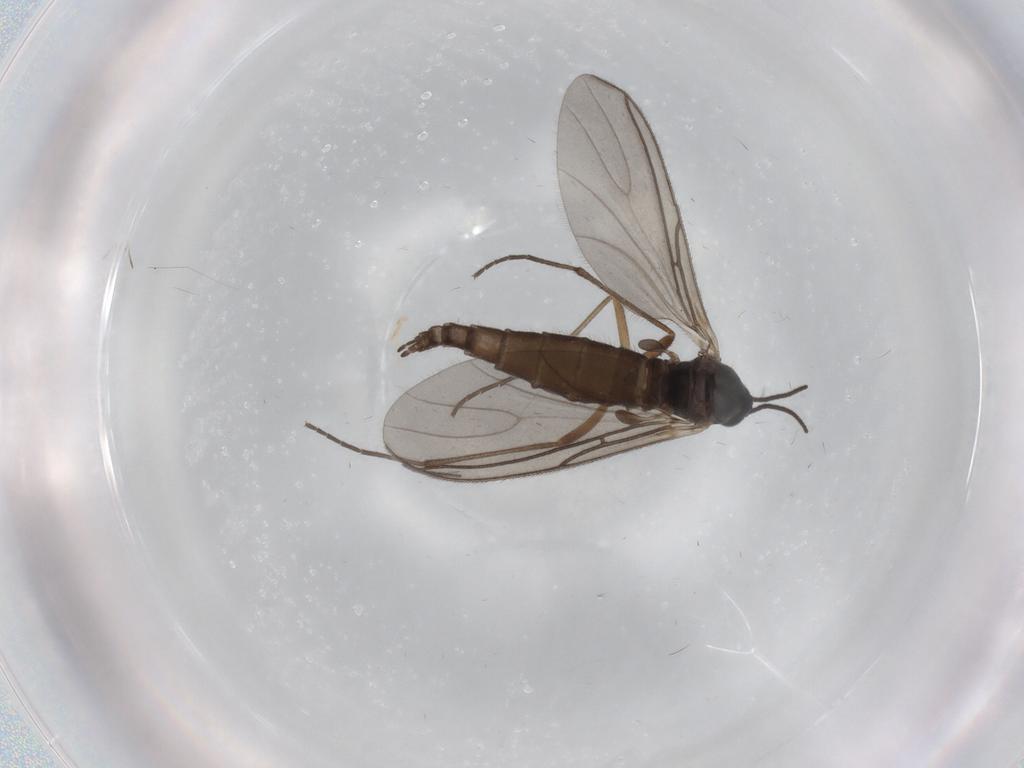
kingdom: Animalia
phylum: Arthropoda
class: Insecta
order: Diptera
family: Sciaridae
